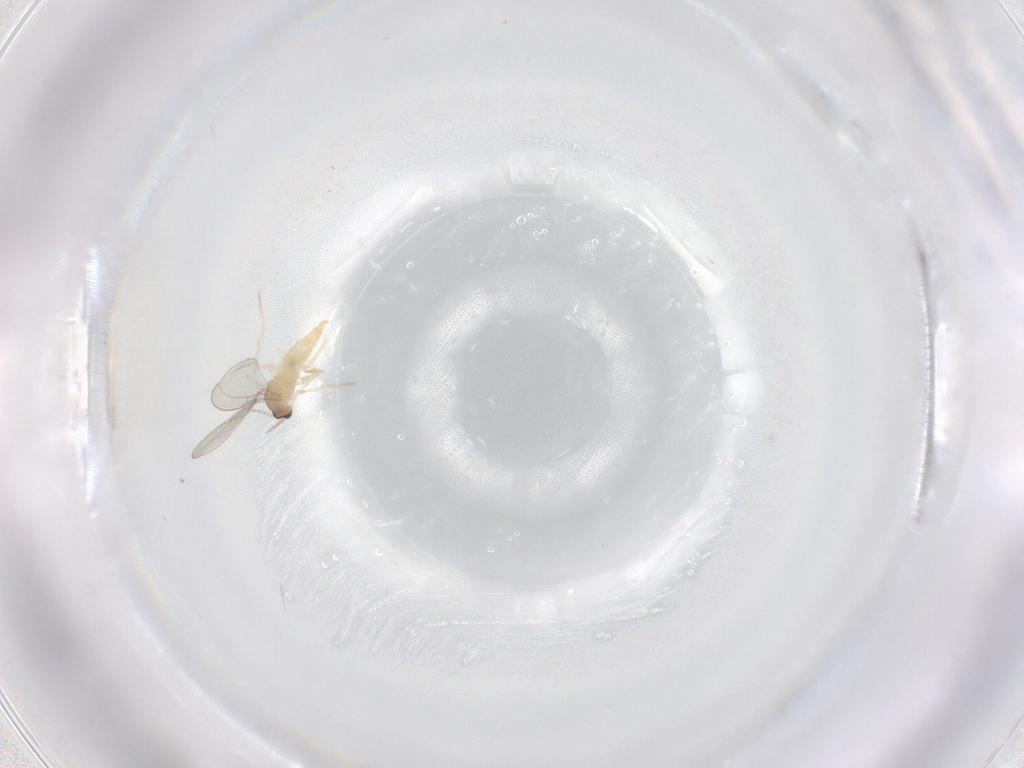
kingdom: Animalia
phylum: Arthropoda
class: Insecta
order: Diptera
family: Cecidomyiidae
